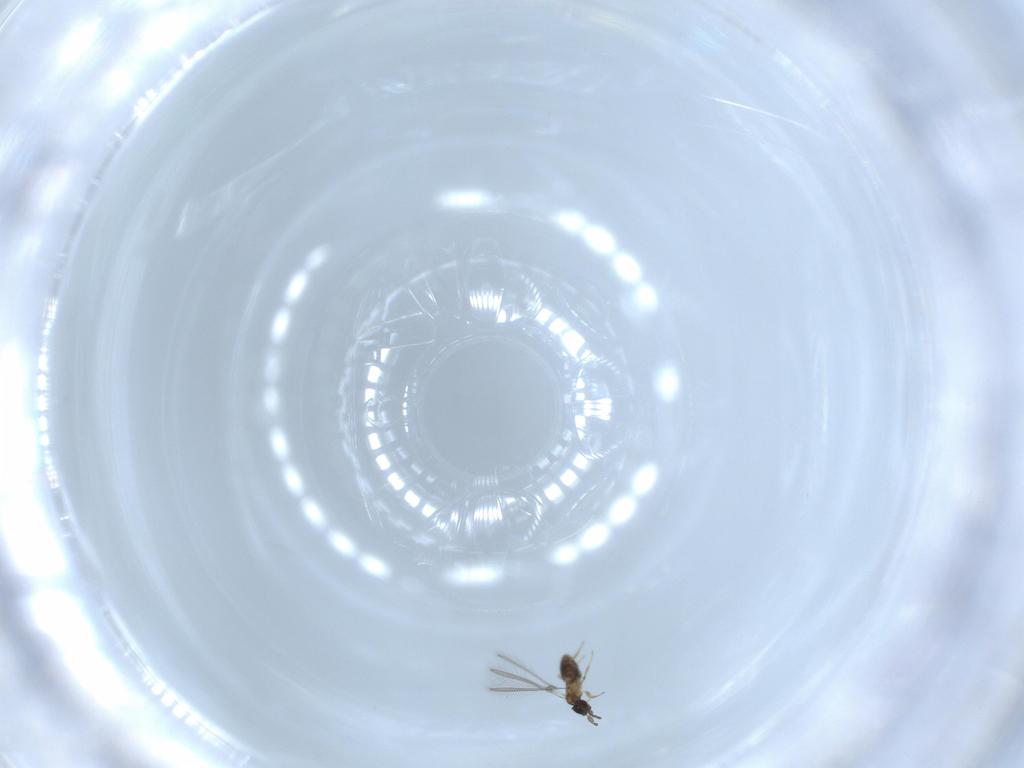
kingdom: Animalia
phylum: Arthropoda
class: Insecta
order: Hymenoptera
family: Mymaridae
